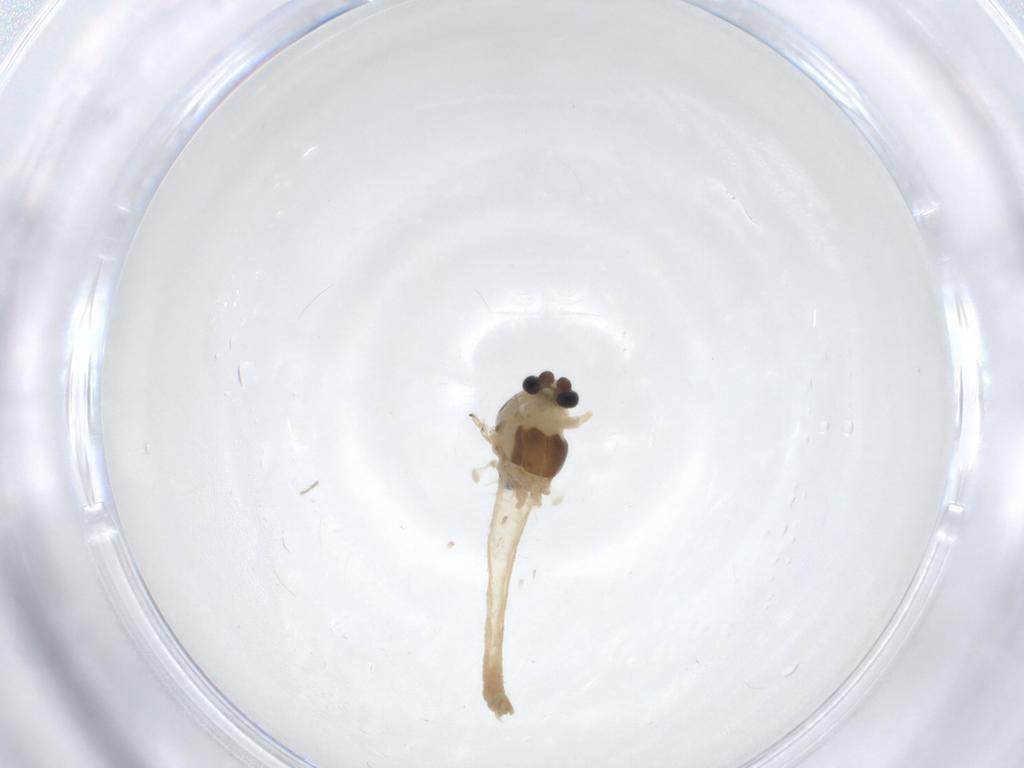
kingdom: Animalia
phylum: Arthropoda
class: Insecta
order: Diptera
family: Chironomidae
